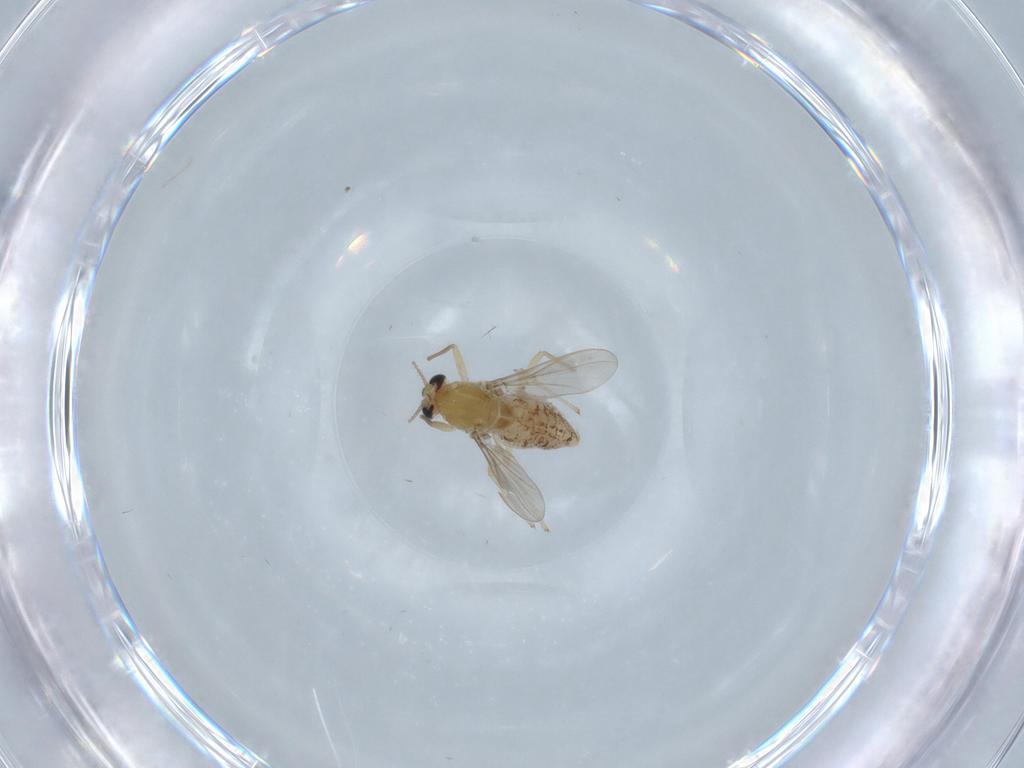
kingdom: Animalia
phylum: Arthropoda
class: Insecta
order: Diptera
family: Chironomidae
